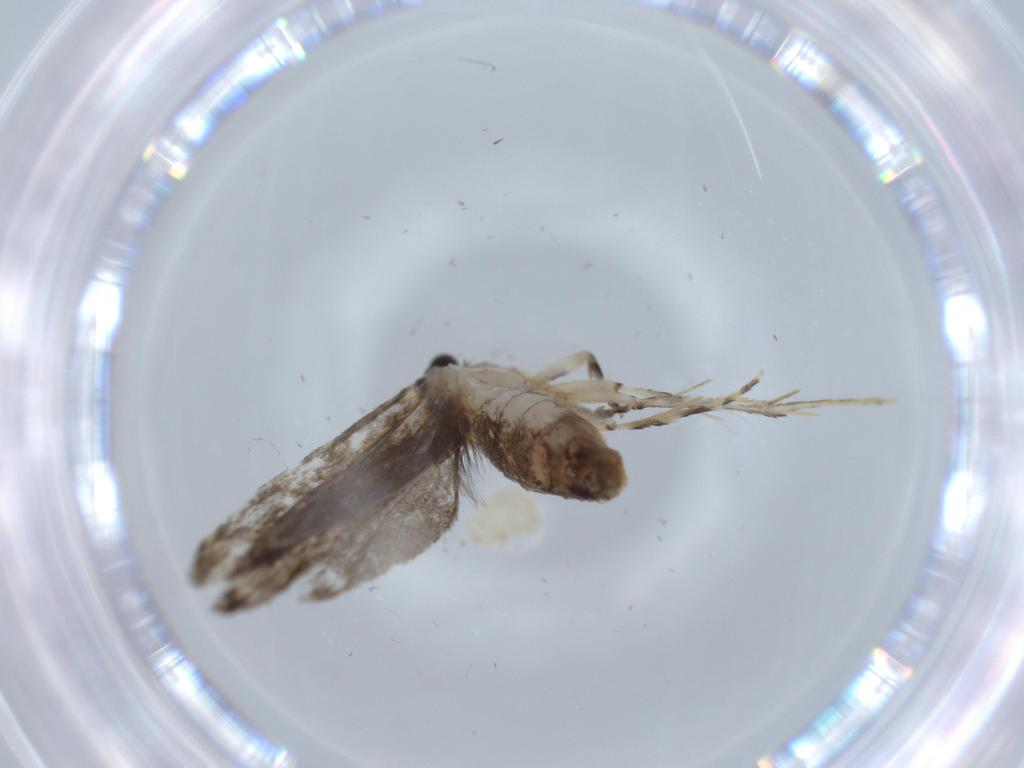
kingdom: Animalia
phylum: Arthropoda
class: Insecta
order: Lepidoptera
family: Tineidae
